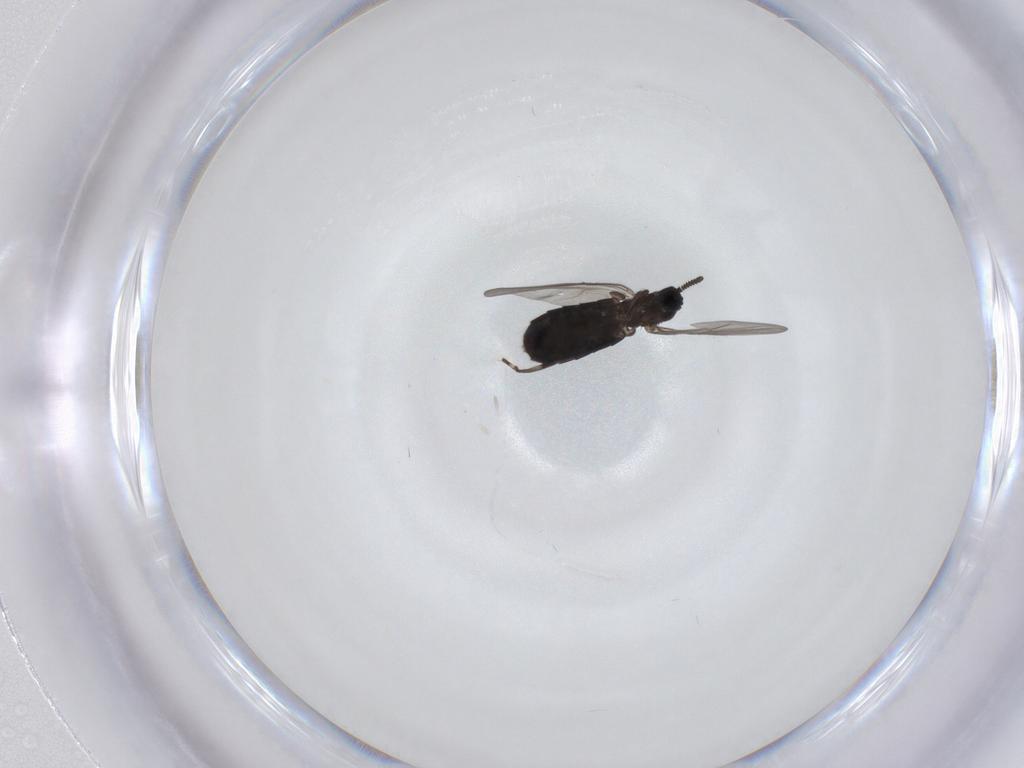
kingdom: Animalia
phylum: Arthropoda
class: Insecta
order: Diptera
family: Scatopsidae
